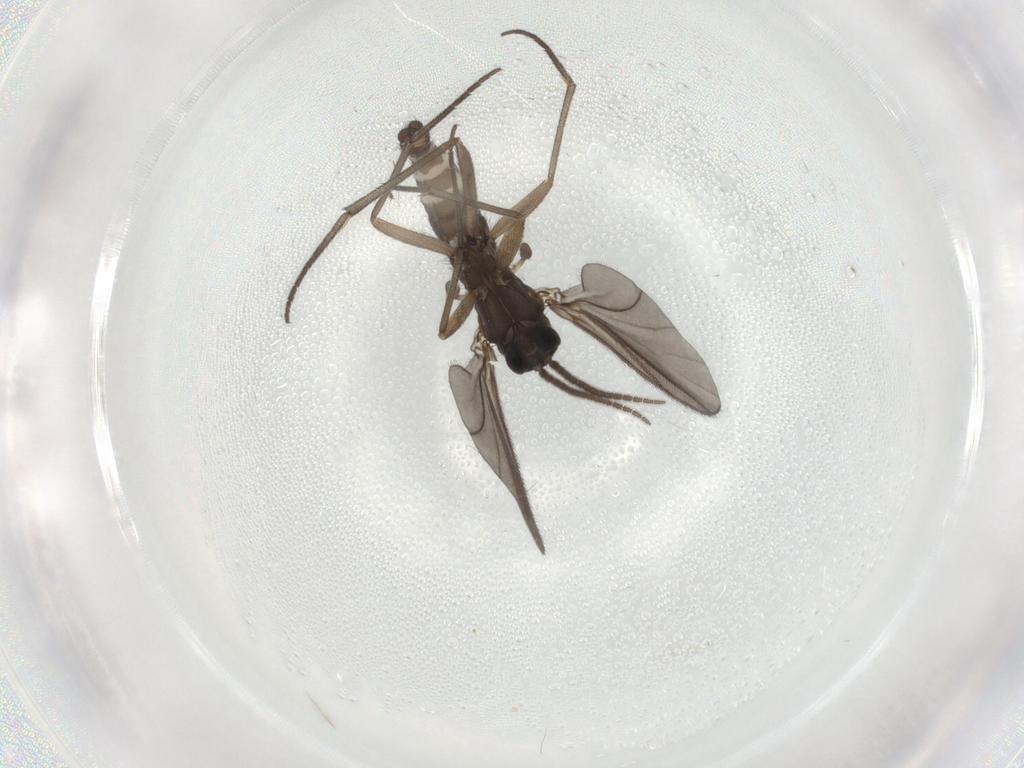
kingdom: Animalia
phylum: Arthropoda
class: Insecta
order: Diptera
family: Sciaridae
